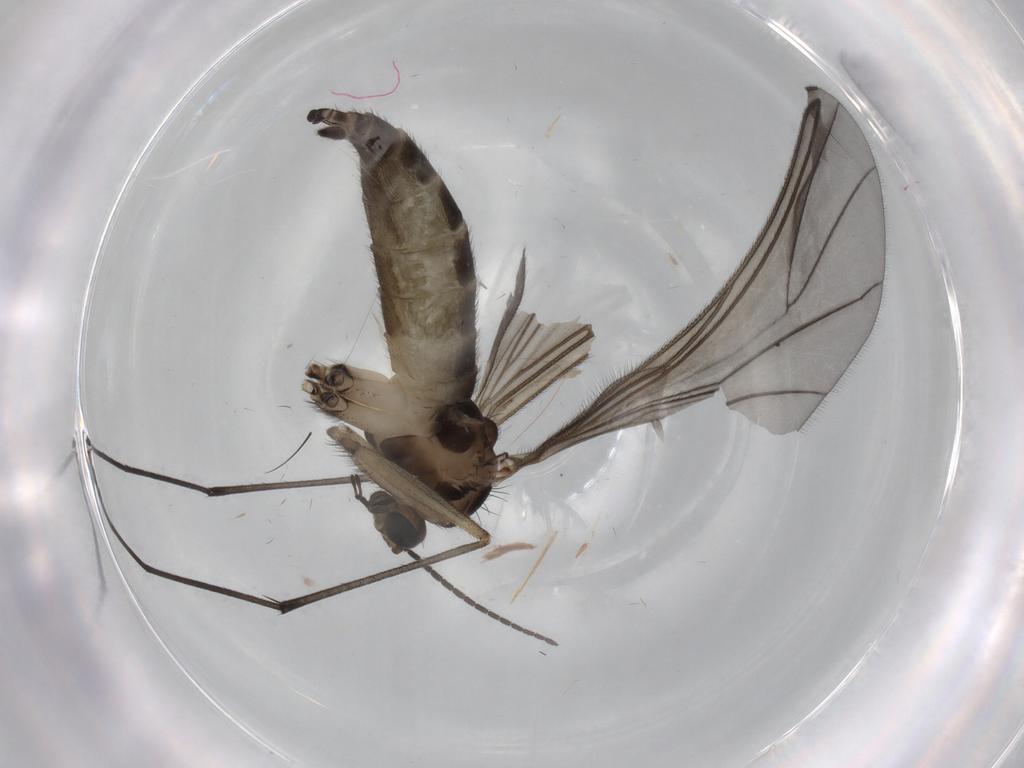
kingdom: Animalia
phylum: Arthropoda
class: Insecta
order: Diptera
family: Sciaridae
